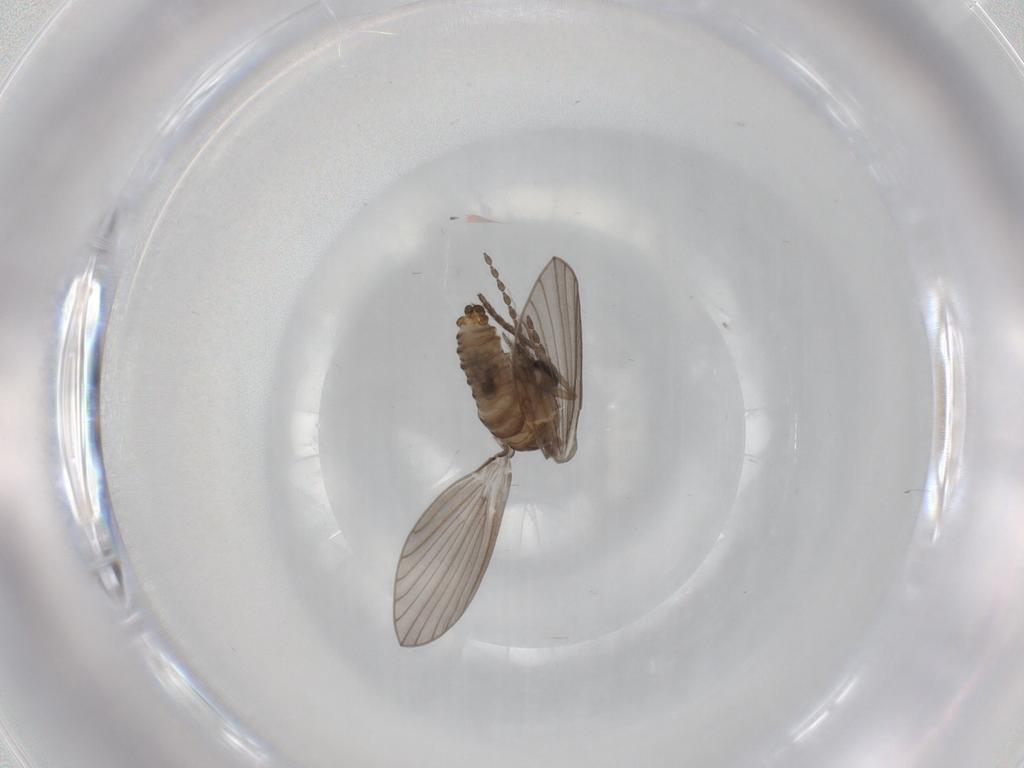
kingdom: Animalia
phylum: Arthropoda
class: Insecta
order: Diptera
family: Psychodidae
